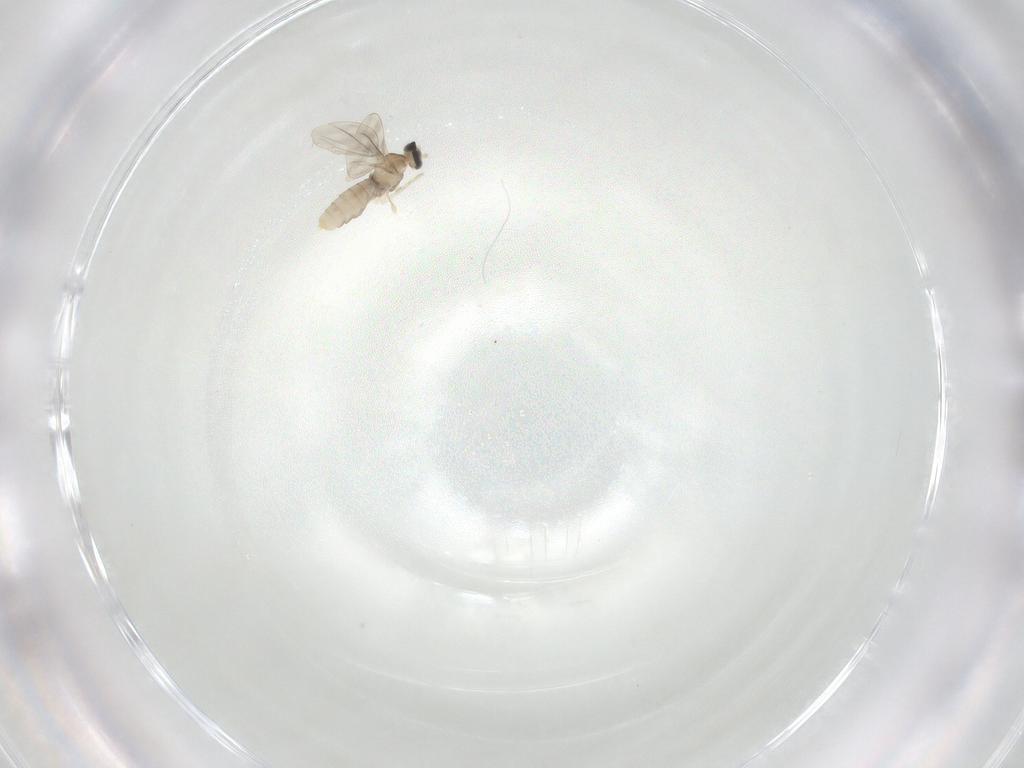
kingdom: Animalia
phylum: Arthropoda
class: Insecta
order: Diptera
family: Cecidomyiidae
